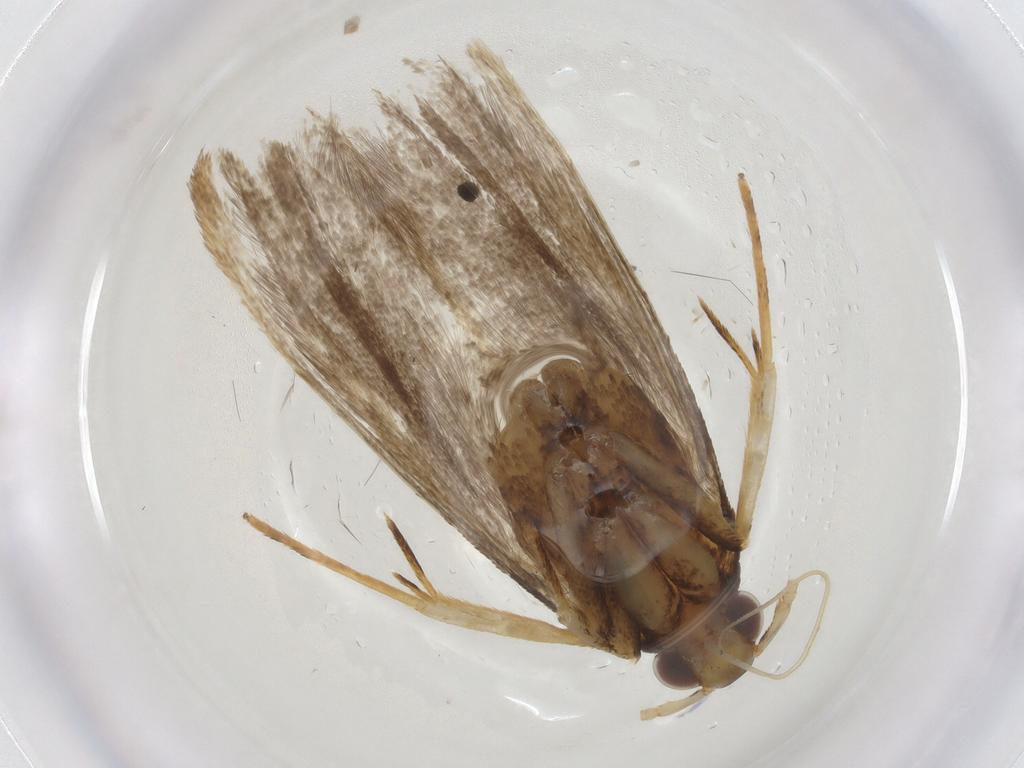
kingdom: Animalia
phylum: Arthropoda
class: Insecta
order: Lepidoptera
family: Lecithoceridae
